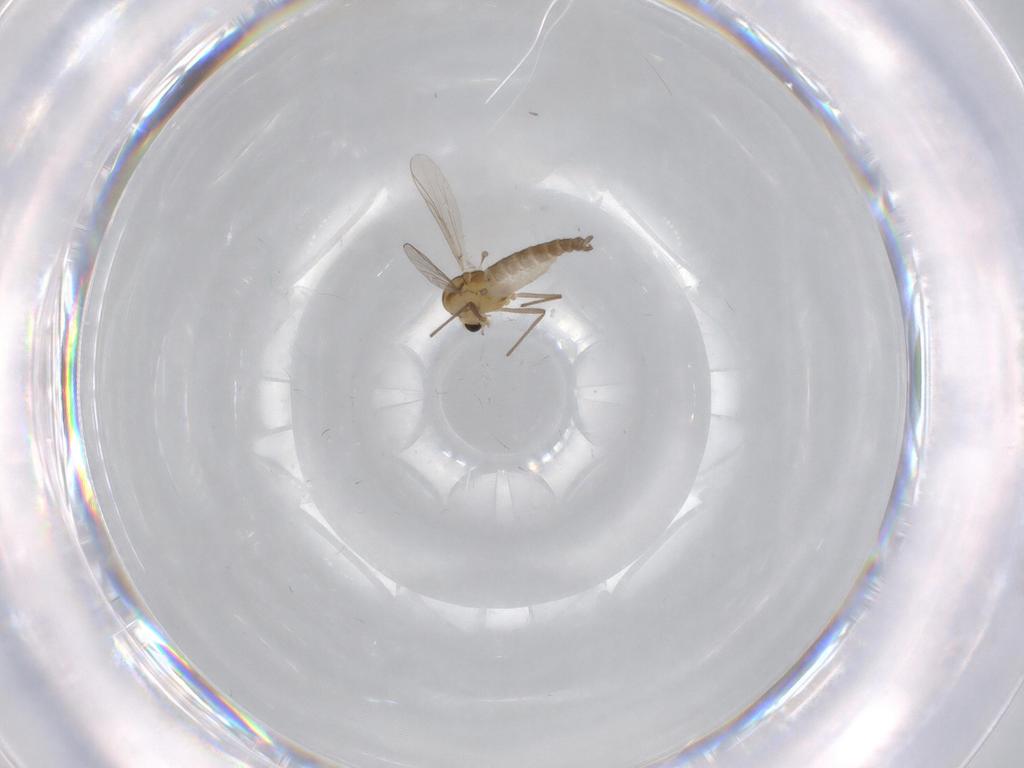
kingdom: Animalia
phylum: Arthropoda
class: Insecta
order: Diptera
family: Chironomidae
